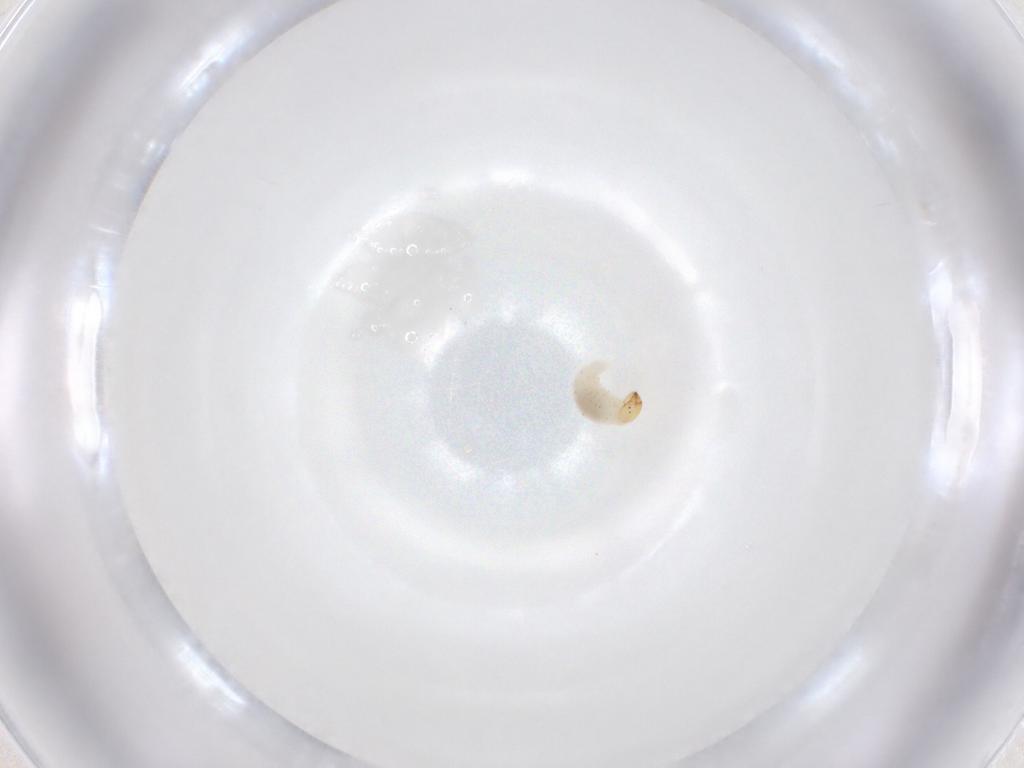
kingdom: Animalia
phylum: Arthropoda
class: Insecta
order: Coleoptera
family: Staphylinidae
